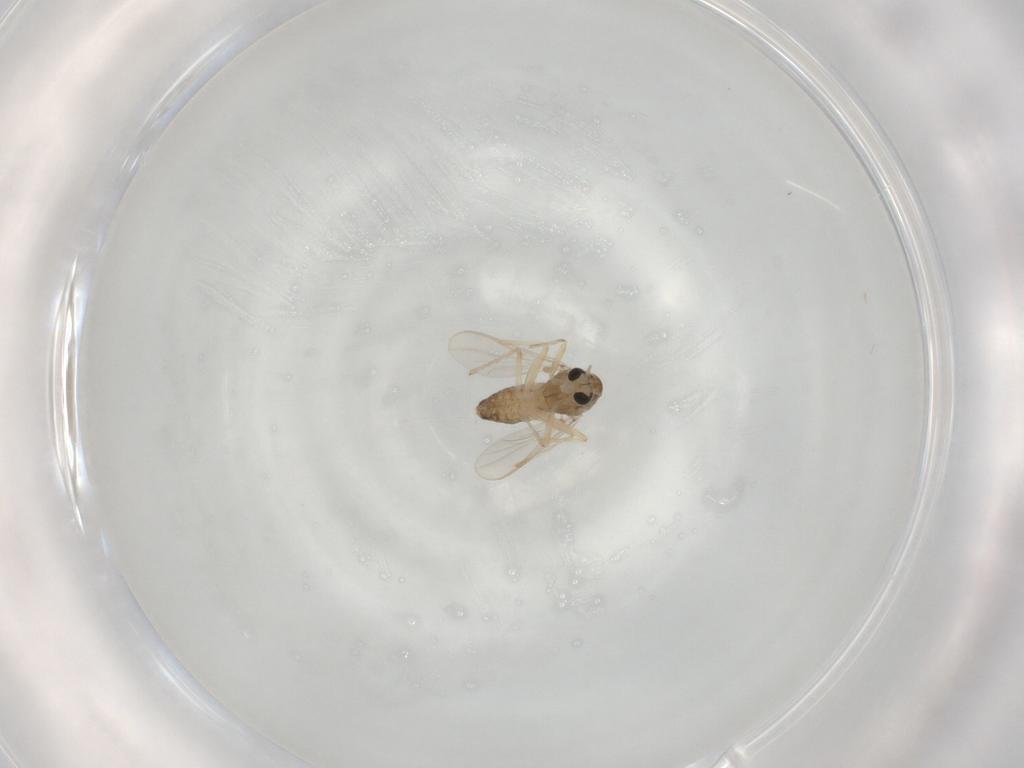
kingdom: Animalia
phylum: Arthropoda
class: Insecta
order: Diptera
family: Chironomidae
